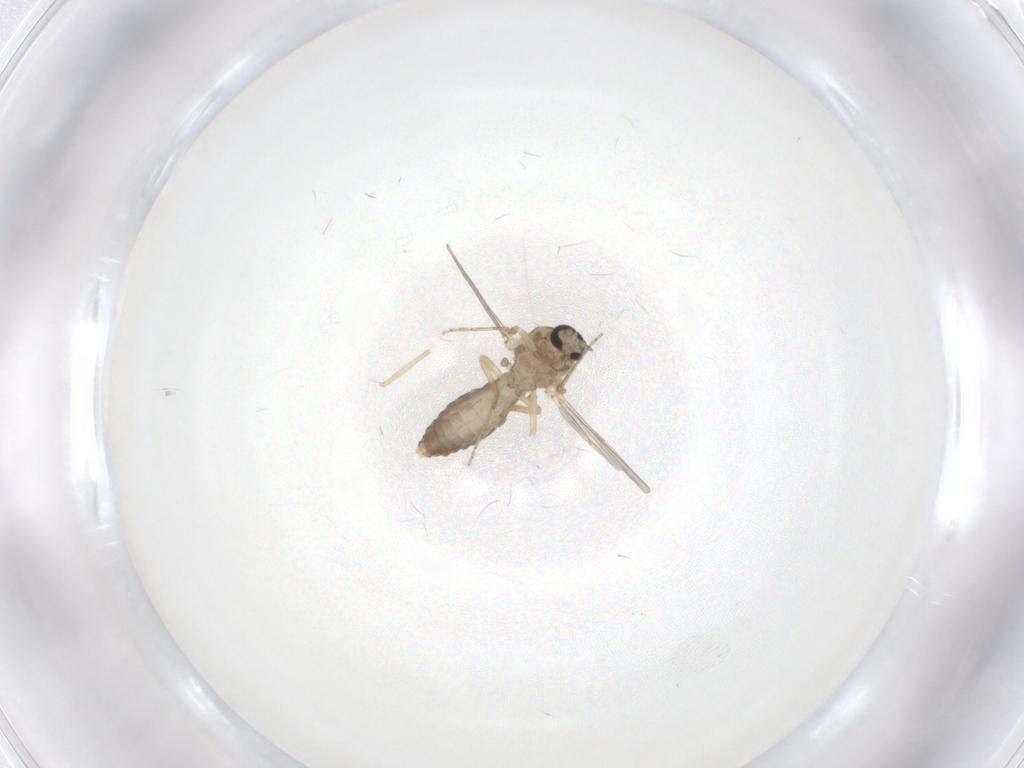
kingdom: Animalia
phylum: Arthropoda
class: Insecta
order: Diptera
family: Ceratopogonidae
